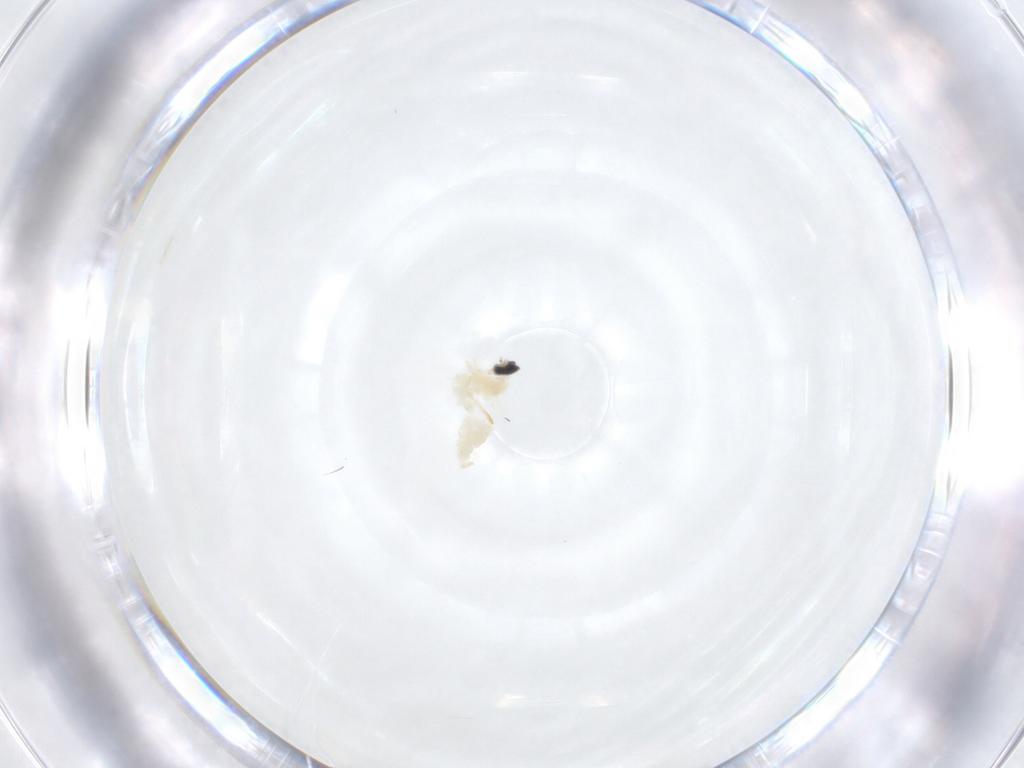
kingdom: Animalia
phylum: Arthropoda
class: Insecta
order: Diptera
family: Cecidomyiidae
